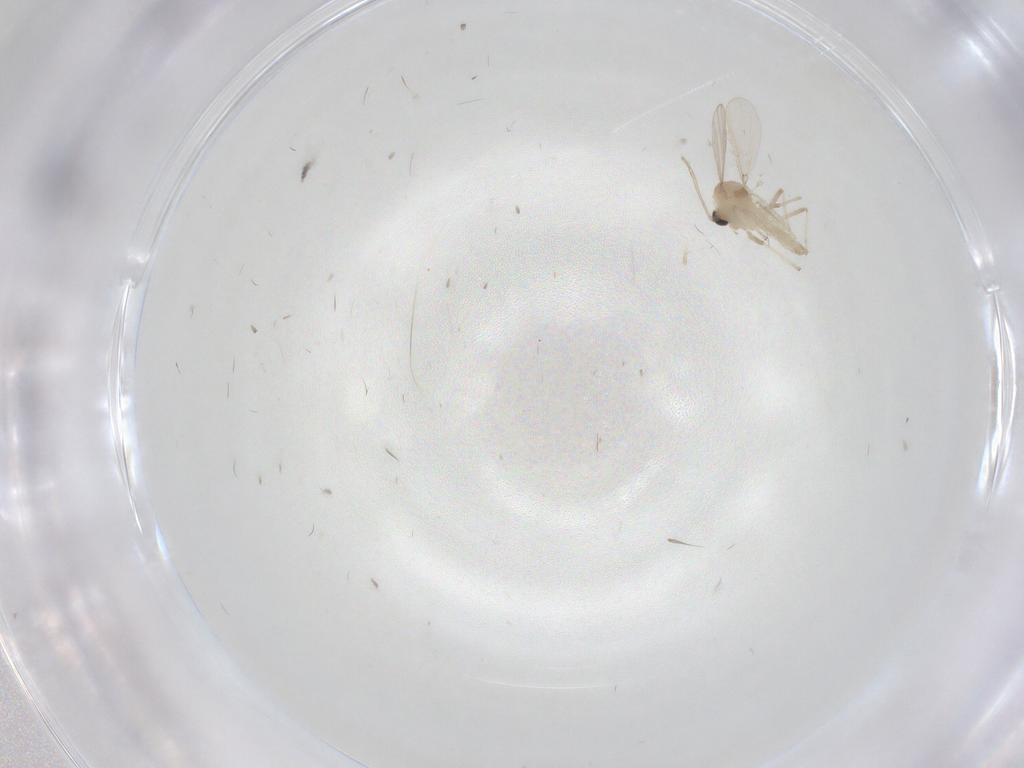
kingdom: Animalia
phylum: Arthropoda
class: Insecta
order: Diptera
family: Chironomidae
